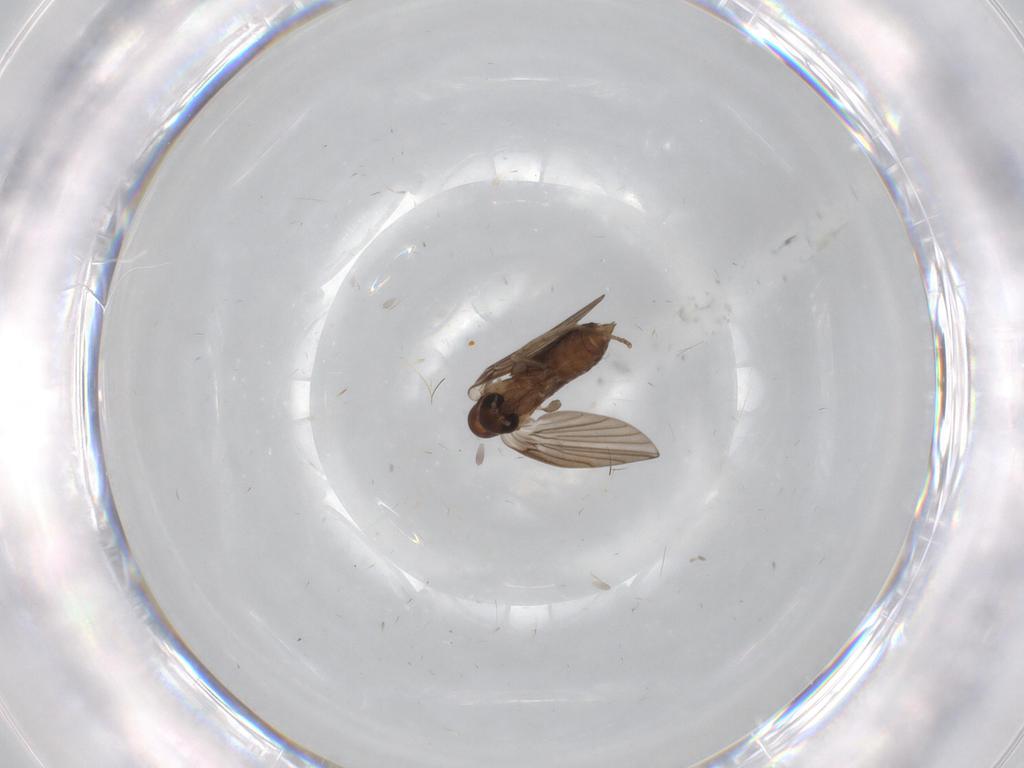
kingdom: Animalia
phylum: Arthropoda
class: Insecta
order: Diptera
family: Psychodidae
